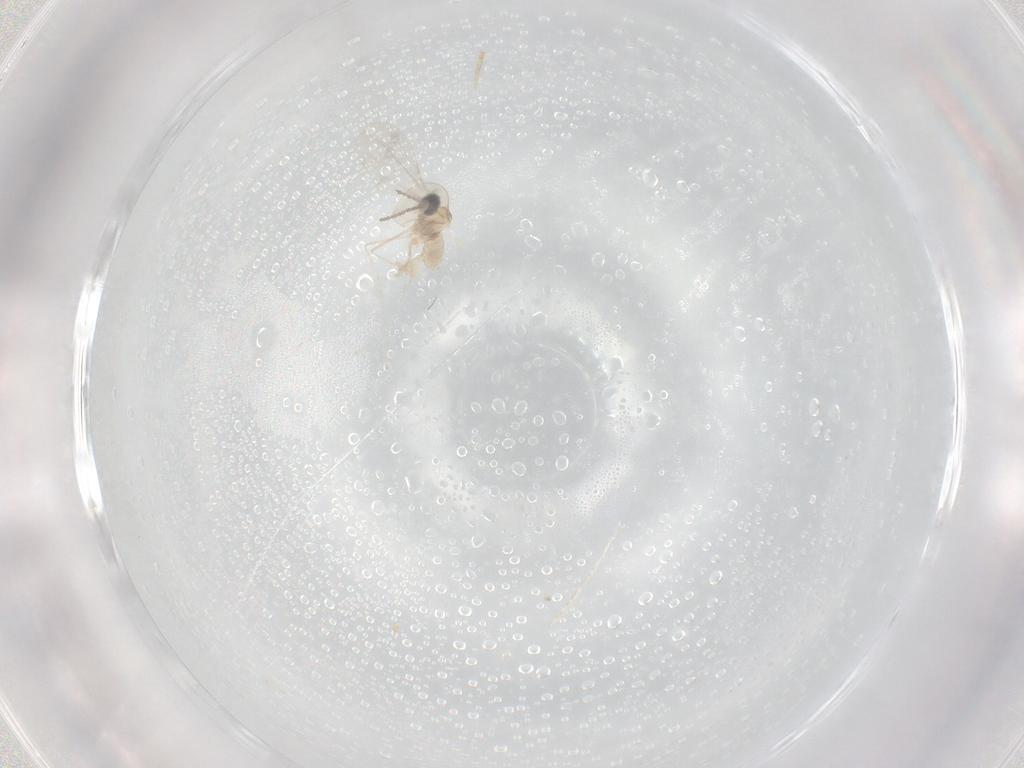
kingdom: Animalia
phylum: Arthropoda
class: Insecta
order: Diptera
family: Cecidomyiidae
